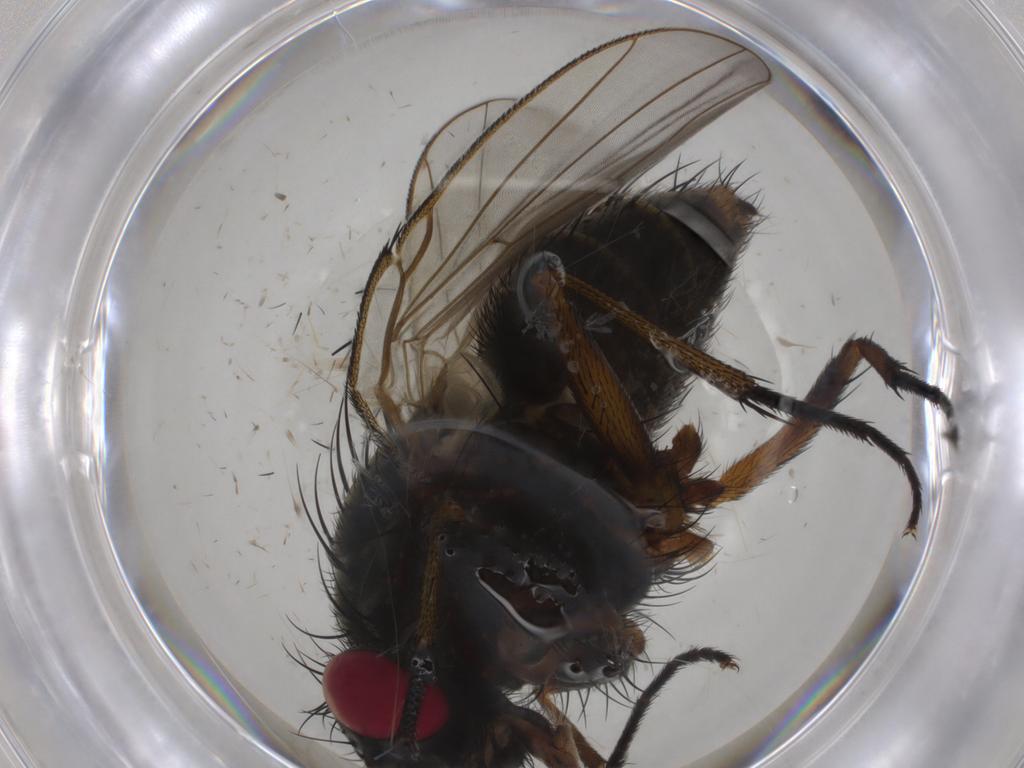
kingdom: Animalia
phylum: Arthropoda
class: Insecta
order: Diptera
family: Muscidae
